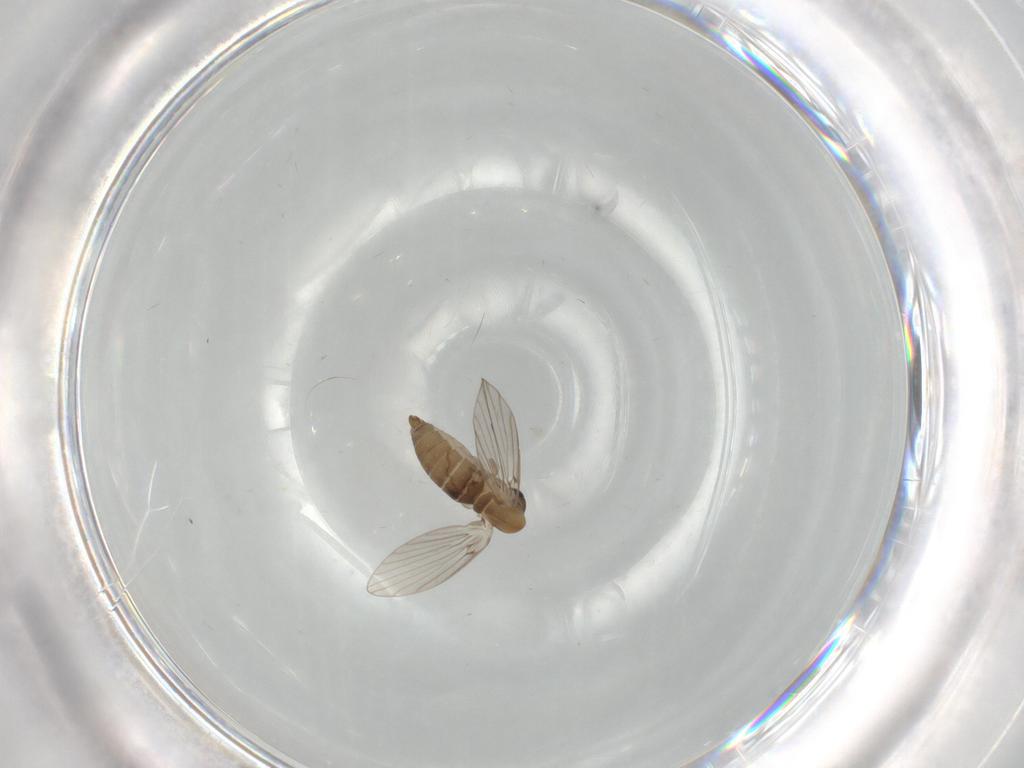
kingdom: Animalia
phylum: Arthropoda
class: Insecta
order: Diptera
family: Psychodidae
